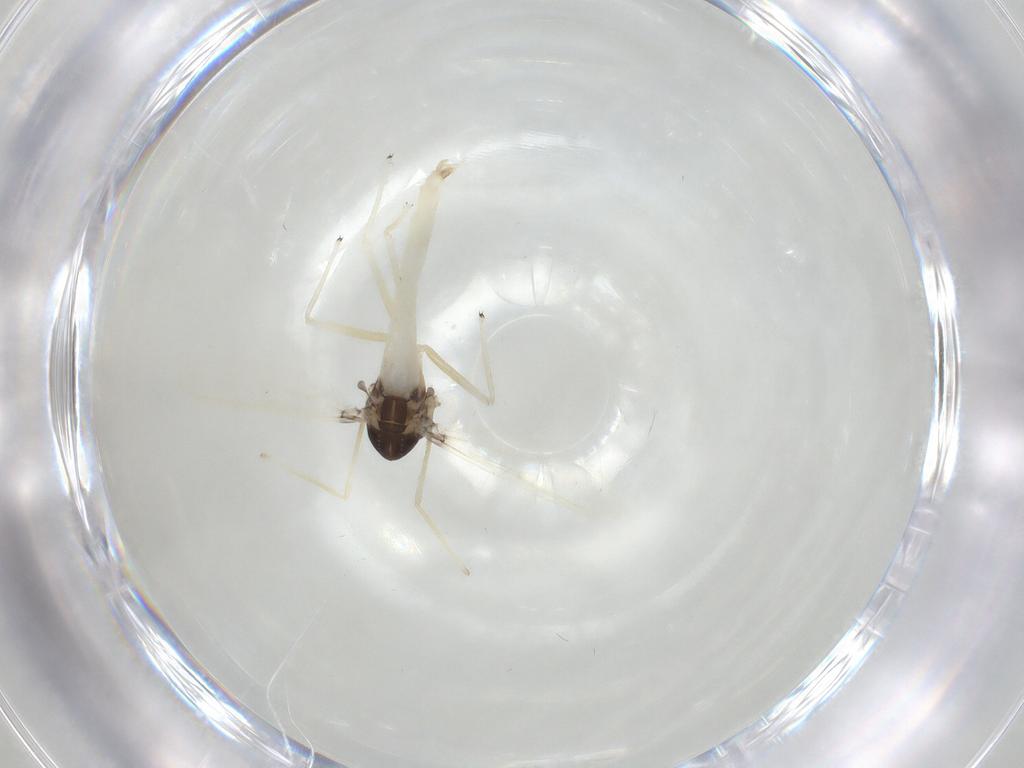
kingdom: Animalia
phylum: Arthropoda
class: Insecta
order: Diptera
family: Chironomidae
